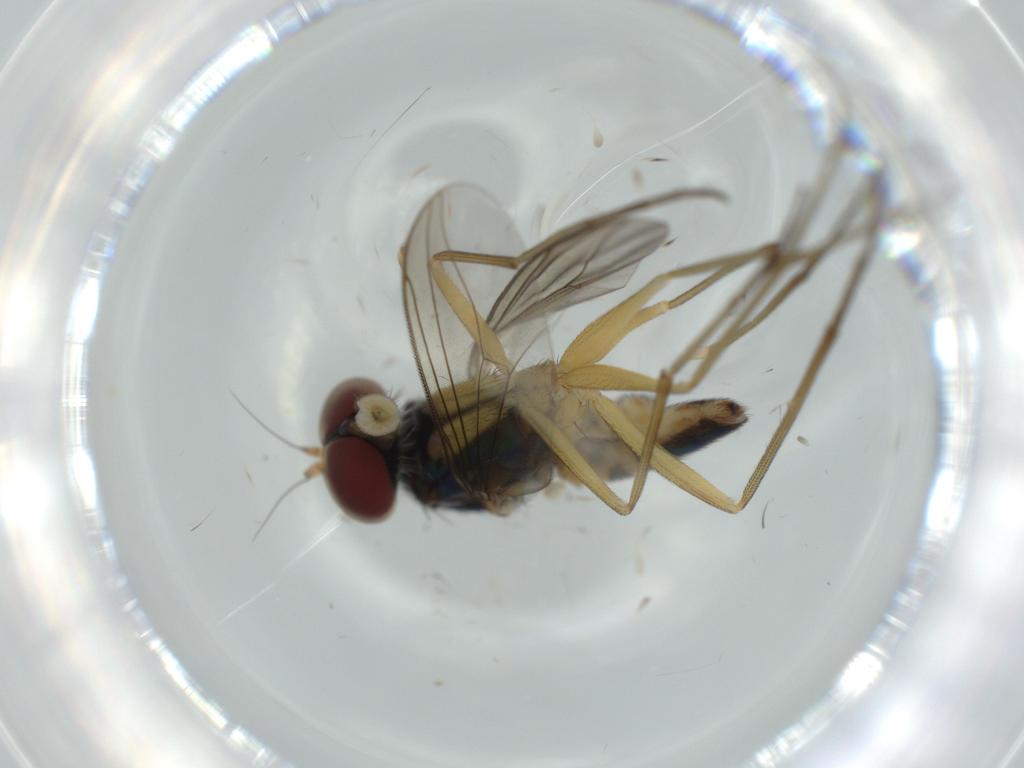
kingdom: Animalia
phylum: Arthropoda
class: Insecta
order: Diptera
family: Dolichopodidae
